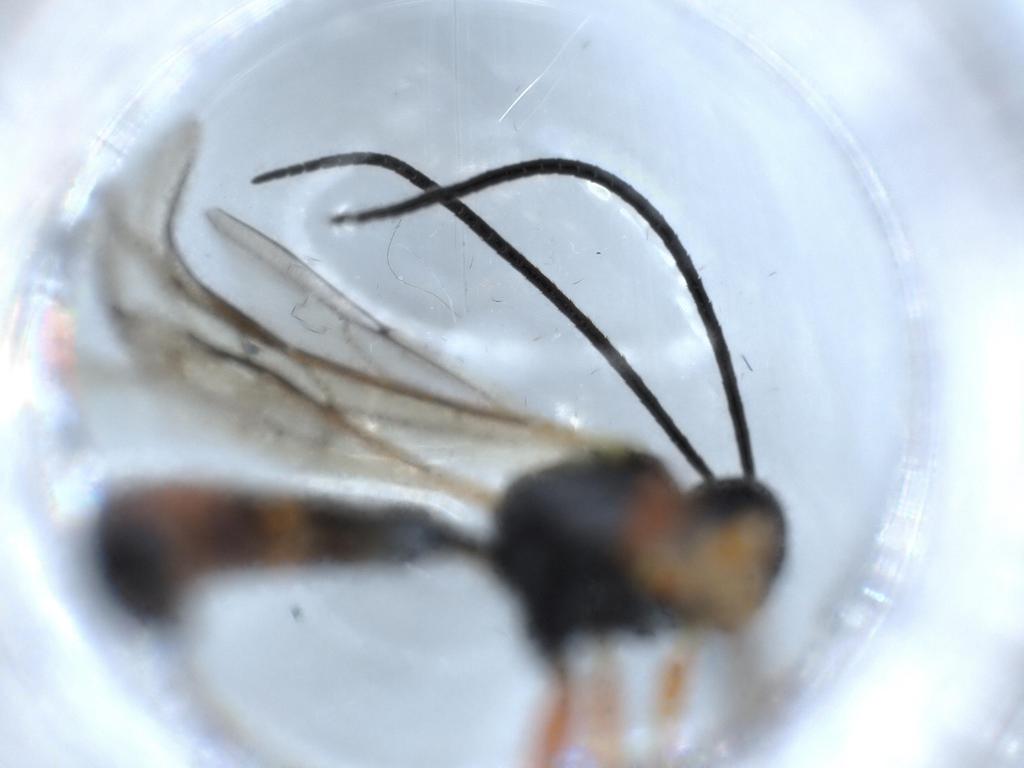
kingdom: Animalia
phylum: Arthropoda
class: Insecta
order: Hymenoptera
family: Ichneumonidae
